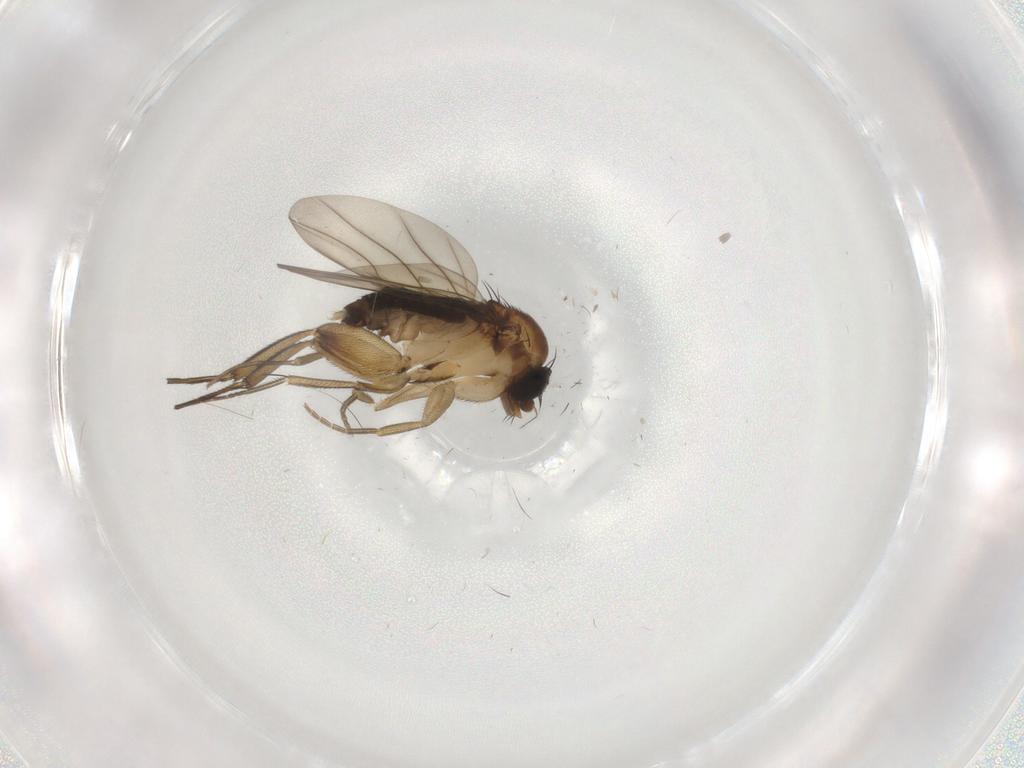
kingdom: Animalia
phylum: Arthropoda
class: Insecta
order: Diptera
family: Phoridae
